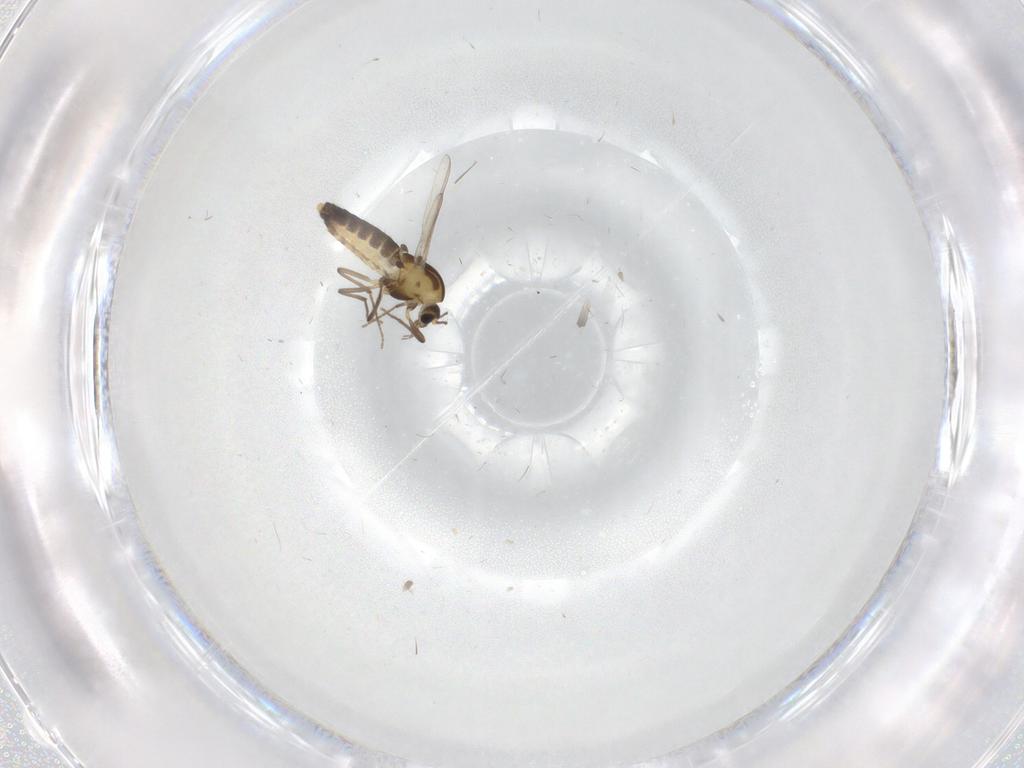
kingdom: Animalia
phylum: Arthropoda
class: Insecta
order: Diptera
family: Chironomidae
